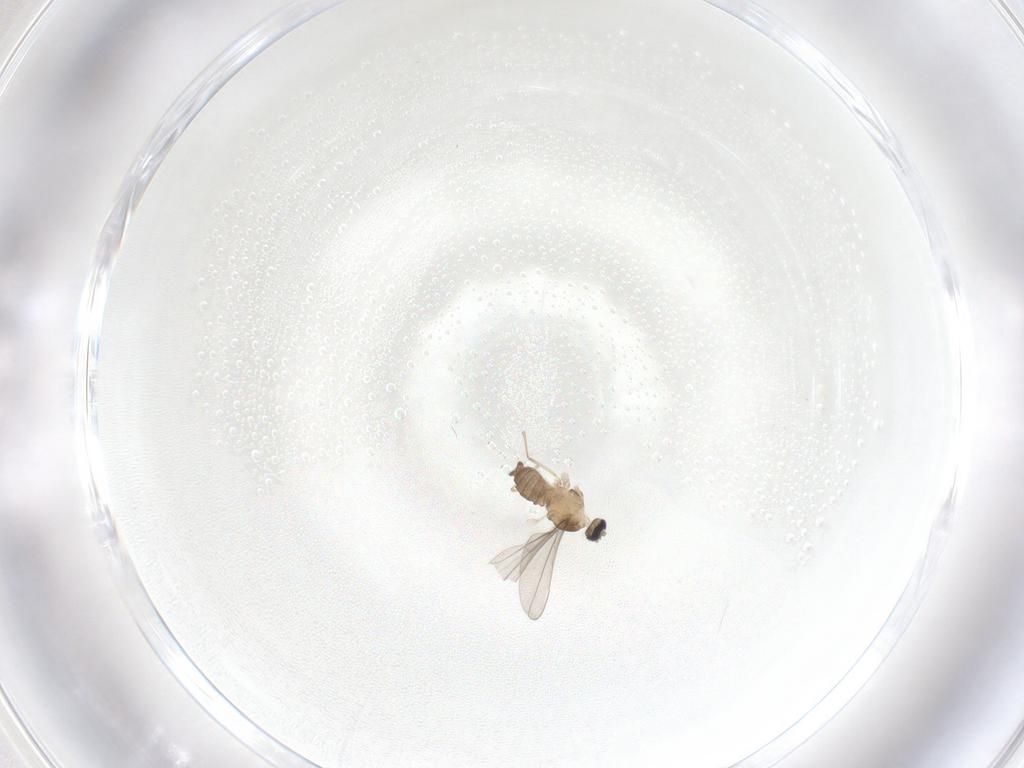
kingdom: Animalia
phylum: Arthropoda
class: Insecta
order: Diptera
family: Cecidomyiidae
